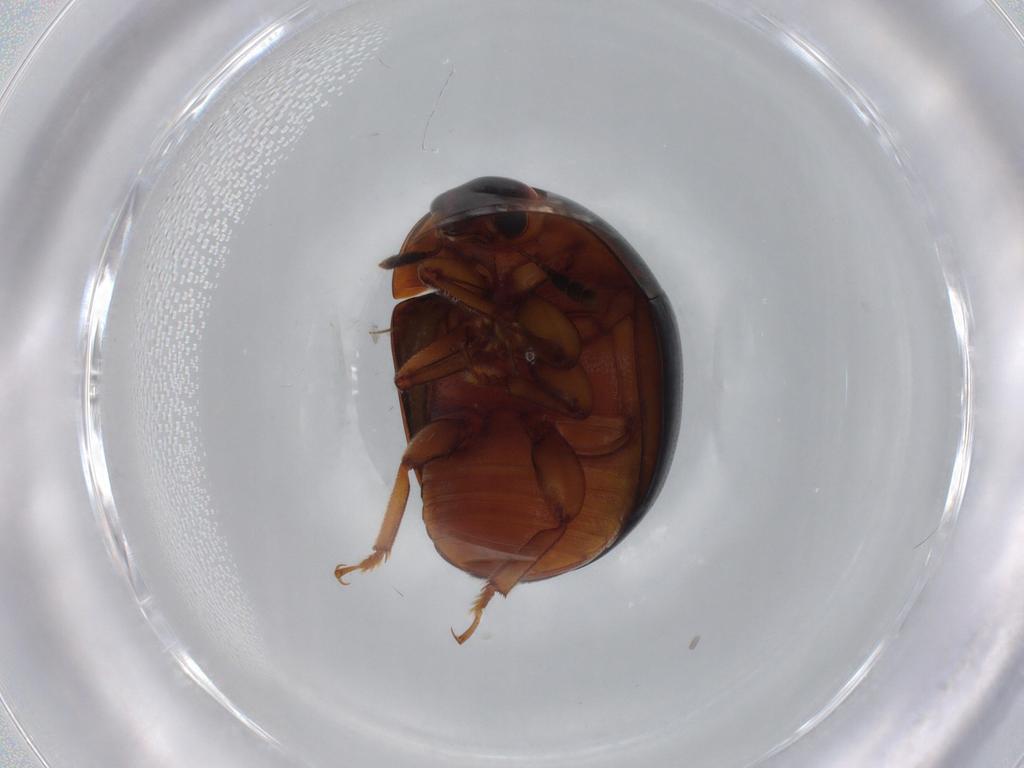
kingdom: Animalia
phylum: Arthropoda
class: Insecta
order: Coleoptera
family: Nitidulidae
